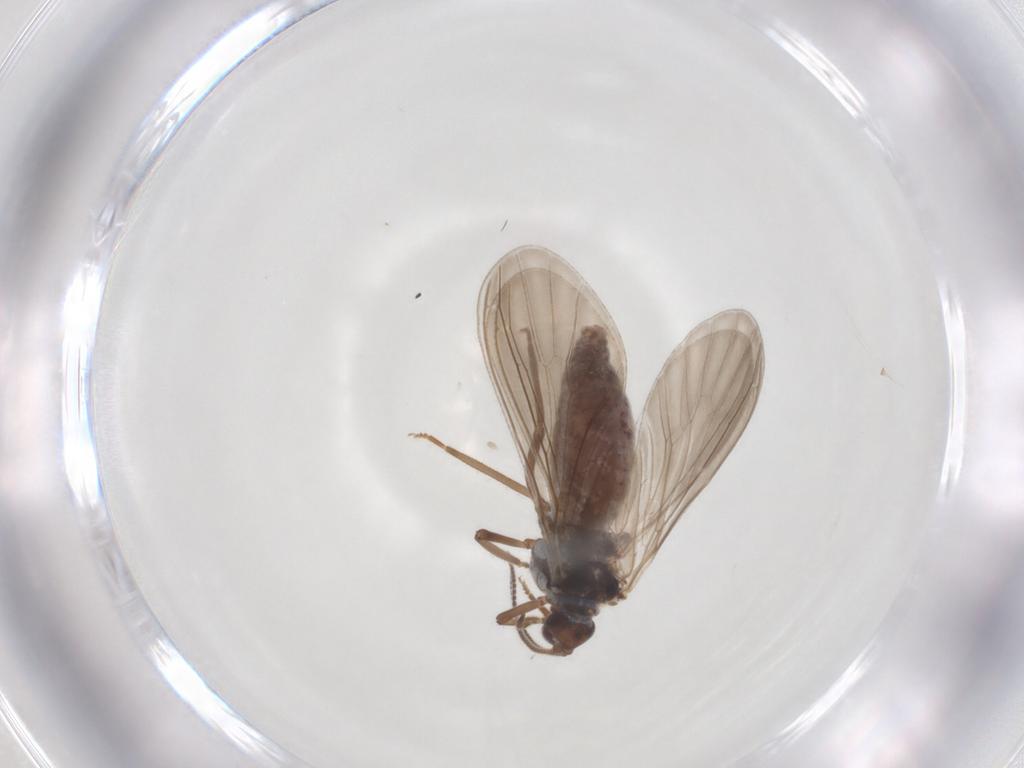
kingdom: Animalia
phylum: Arthropoda
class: Insecta
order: Neuroptera
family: Coniopterygidae
